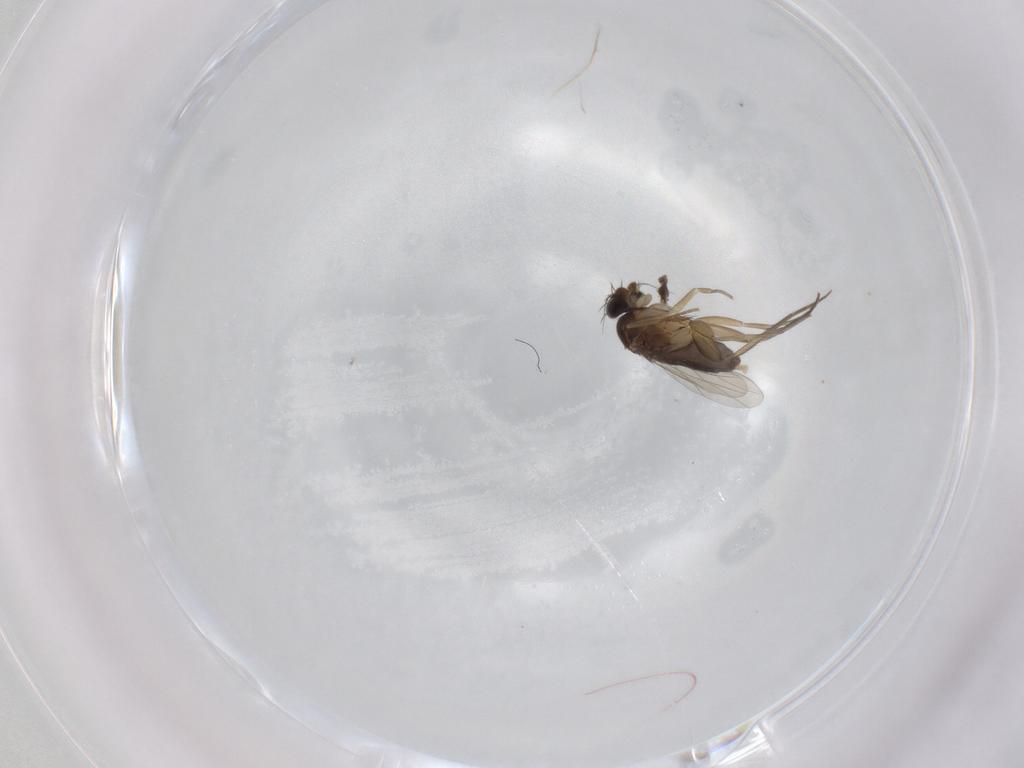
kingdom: Animalia
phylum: Arthropoda
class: Insecta
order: Diptera
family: Phoridae
